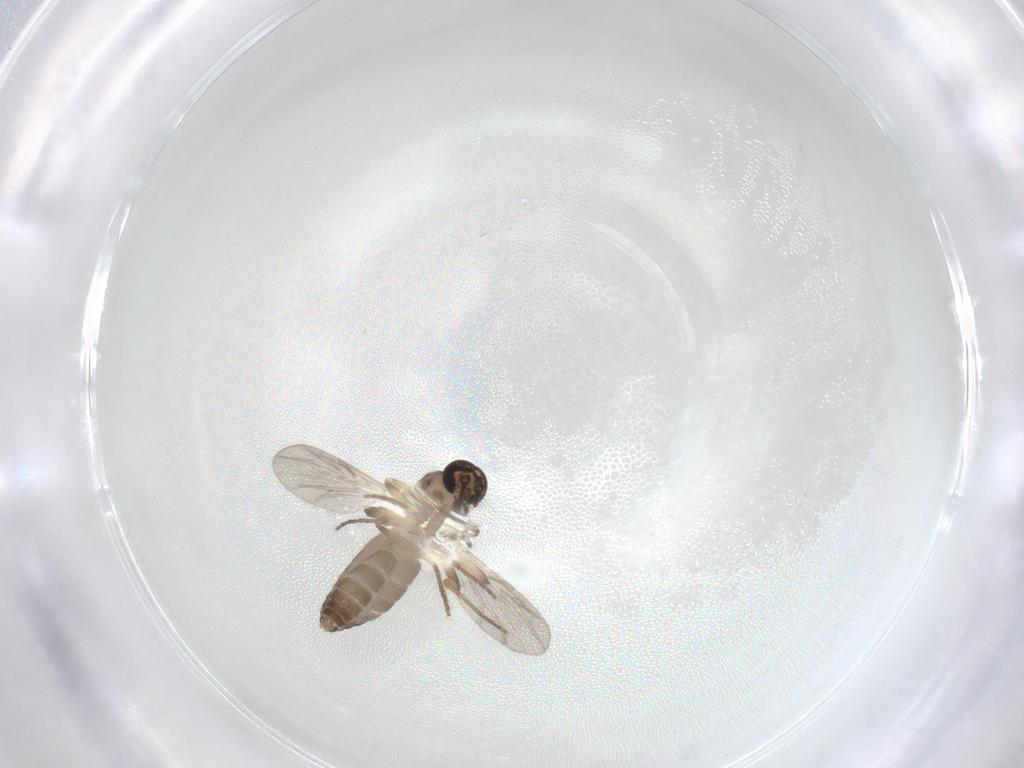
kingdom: Animalia
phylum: Arthropoda
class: Insecta
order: Diptera
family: Ceratopogonidae
